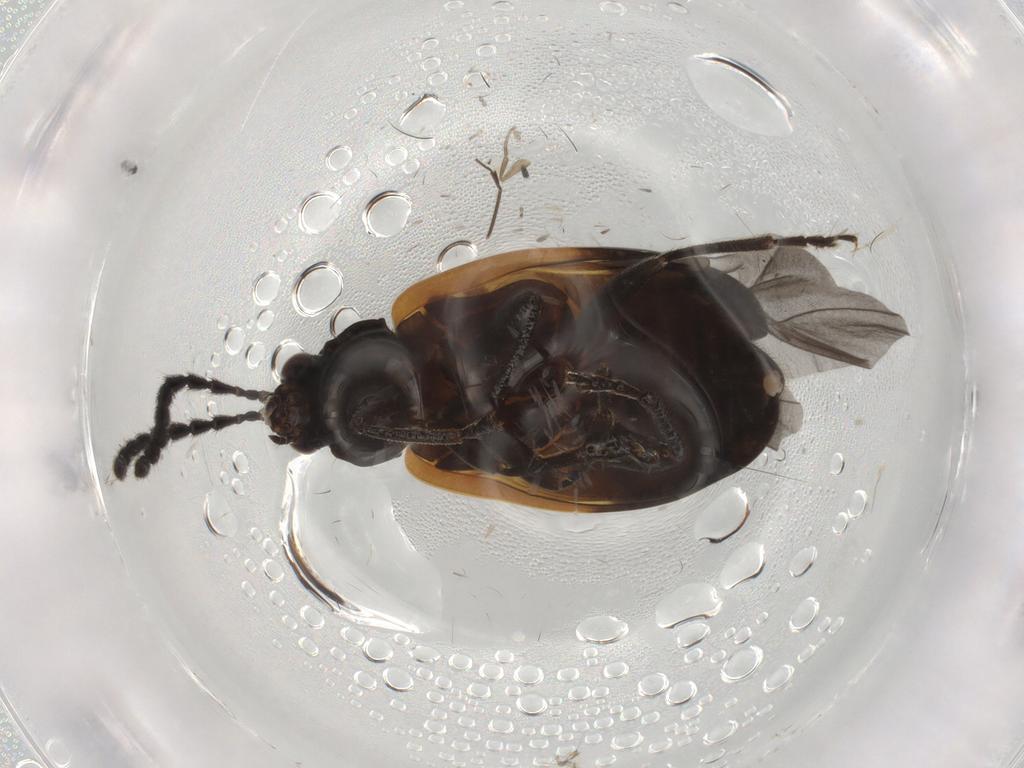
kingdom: Animalia
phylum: Arthropoda
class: Insecta
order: Coleoptera
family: Chrysomelidae
